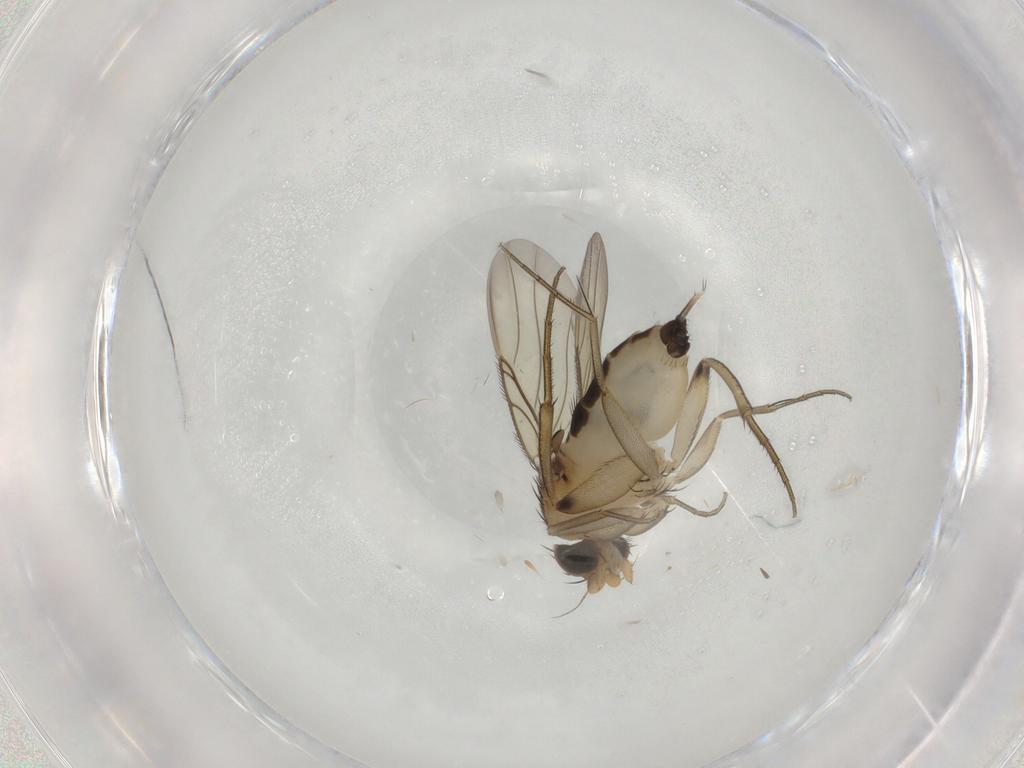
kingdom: Animalia
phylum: Arthropoda
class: Insecta
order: Diptera
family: Phoridae
